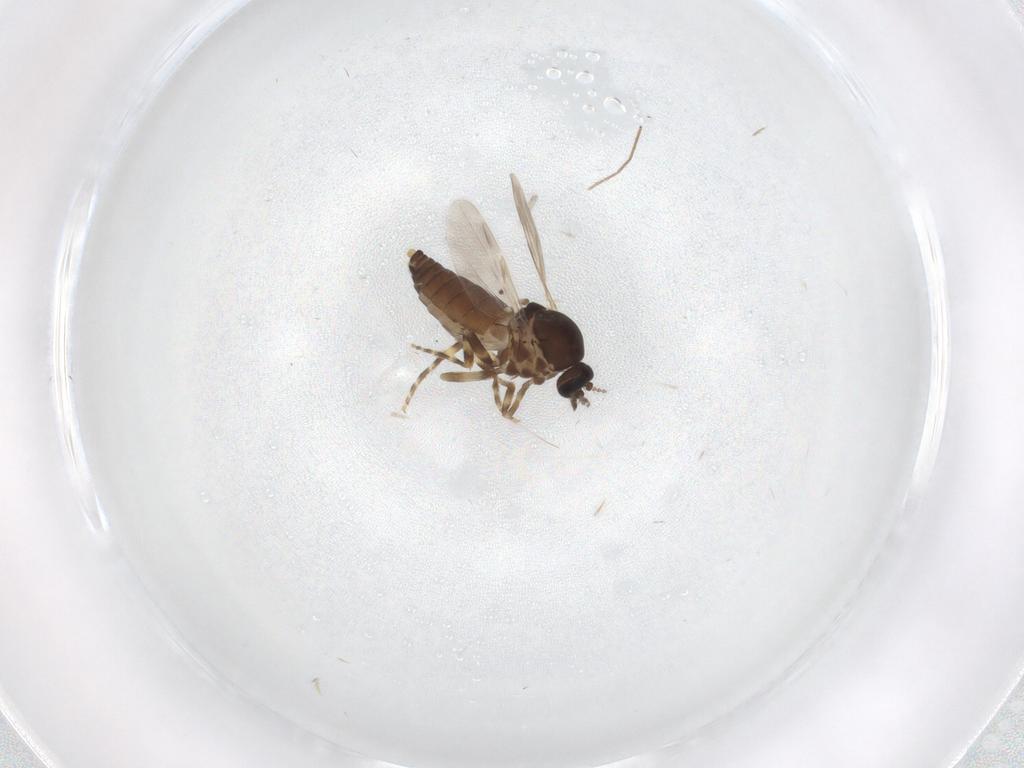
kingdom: Animalia
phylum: Arthropoda
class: Insecta
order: Diptera
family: Ceratopogonidae
